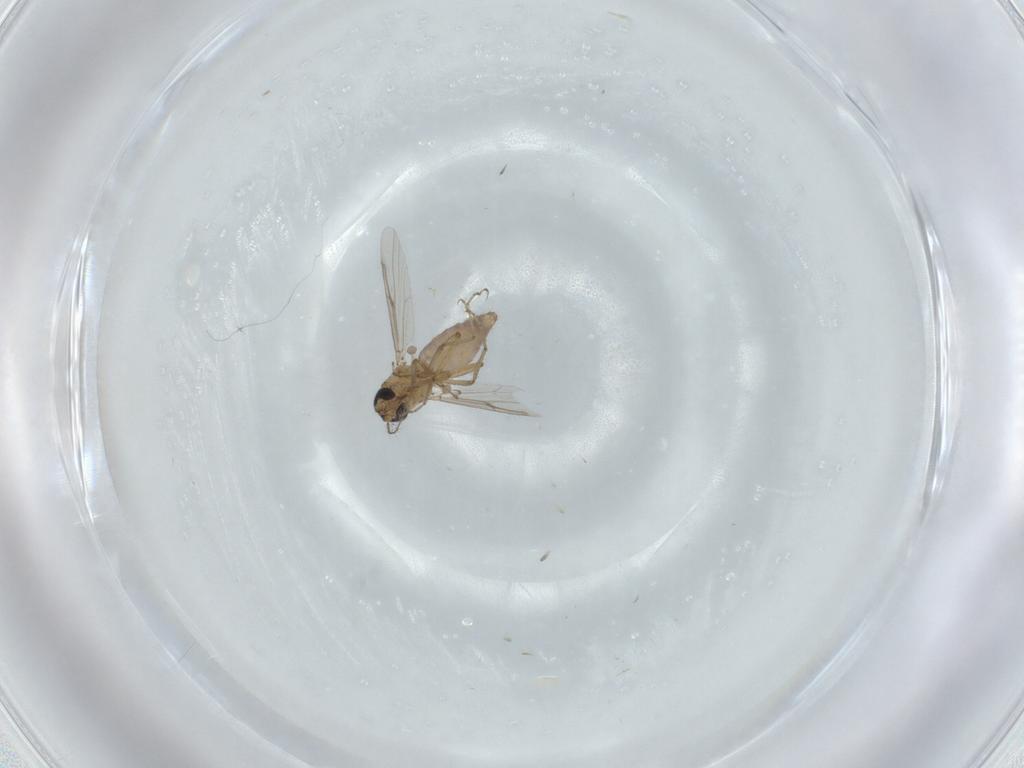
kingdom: Animalia
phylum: Arthropoda
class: Insecta
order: Diptera
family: Ceratopogonidae
